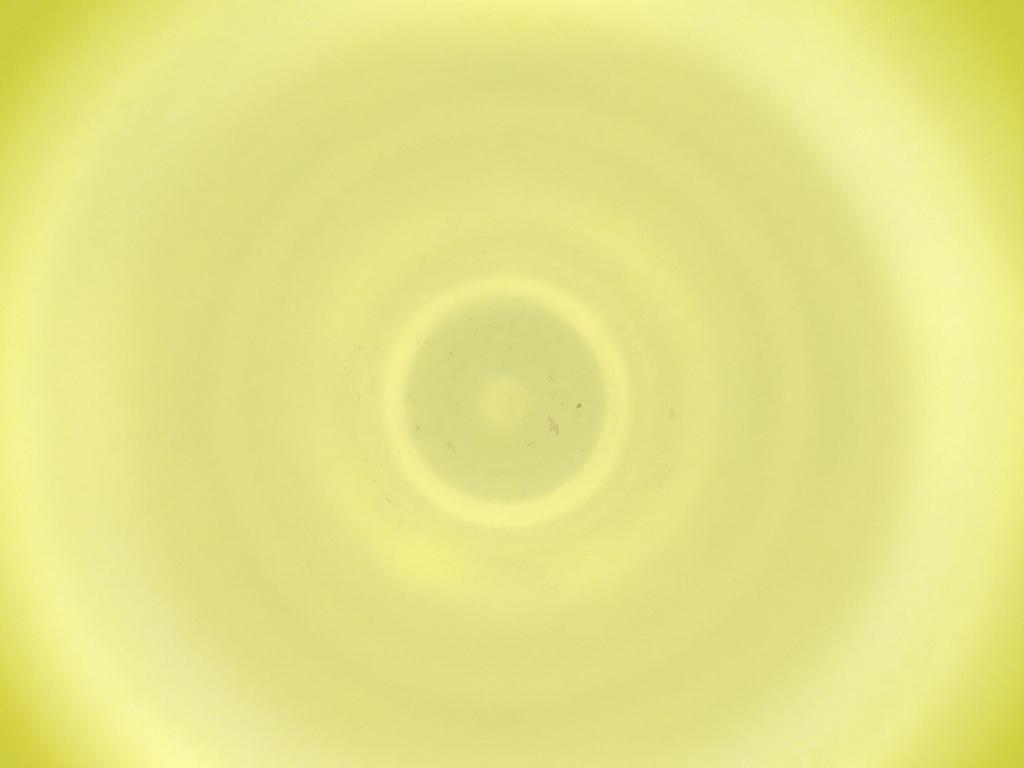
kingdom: Animalia
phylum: Arthropoda
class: Insecta
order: Diptera
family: Cecidomyiidae
